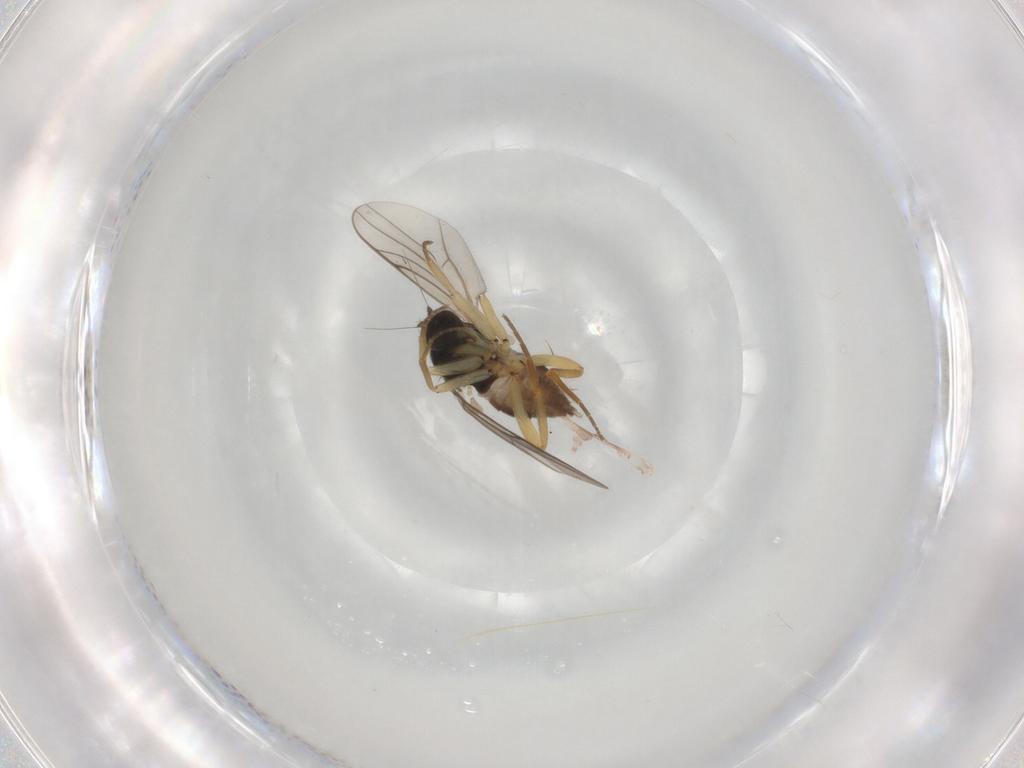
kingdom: Animalia
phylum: Arthropoda
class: Insecta
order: Diptera
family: Hybotidae
